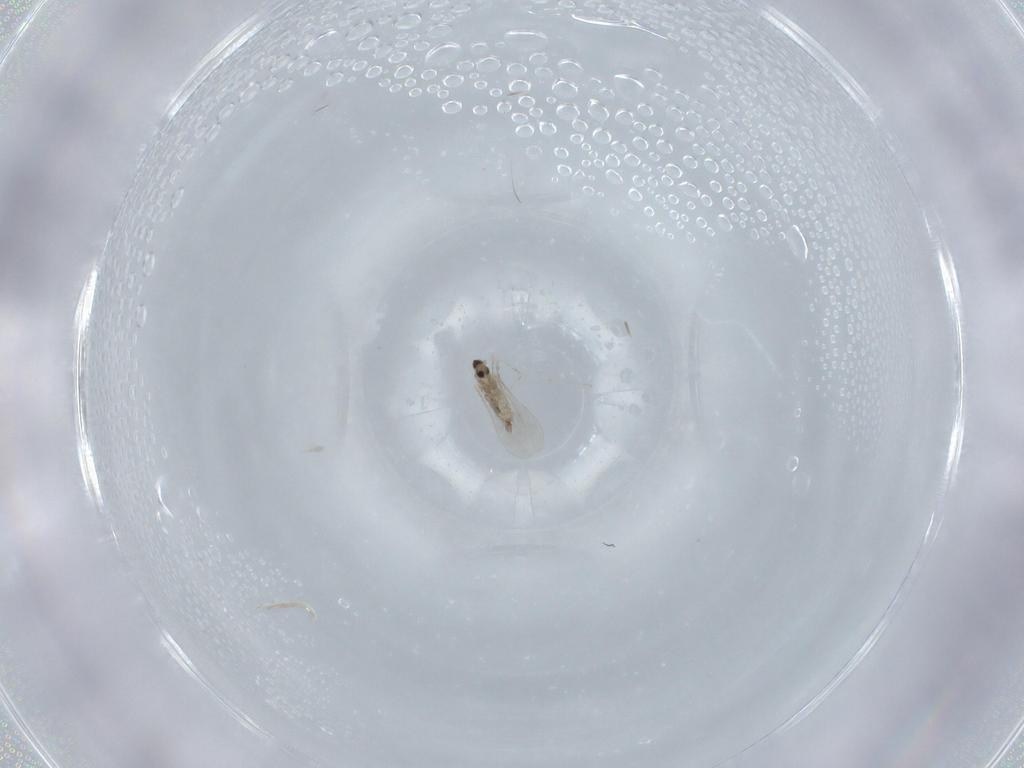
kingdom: Animalia
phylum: Arthropoda
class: Insecta
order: Diptera
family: Cecidomyiidae
